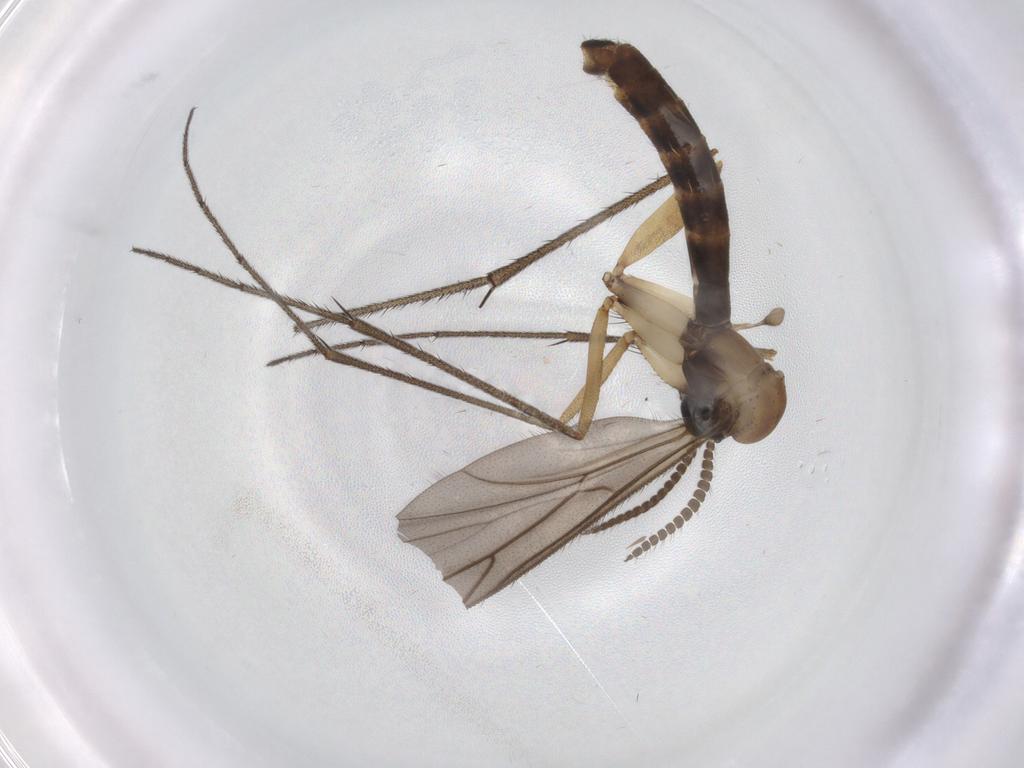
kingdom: Animalia
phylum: Arthropoda
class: Insecta
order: Diptera
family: Mycetophilidae
